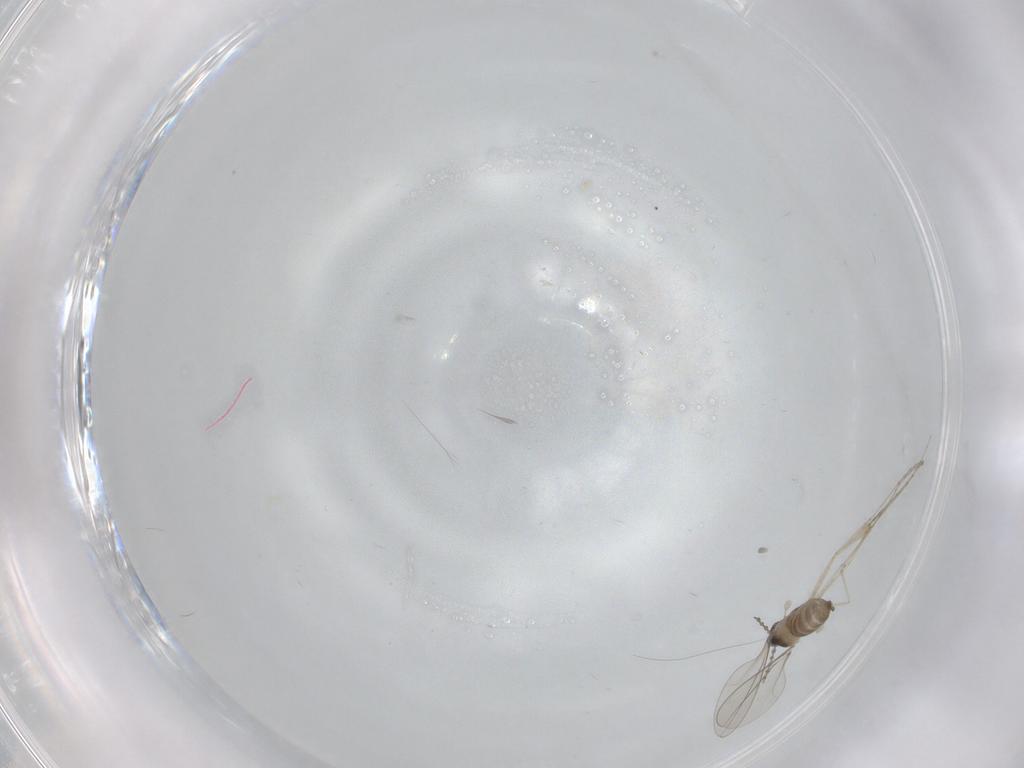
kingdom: Animalia
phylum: Arthropoda
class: Insecta
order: Diptera
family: Cecidomyiidae
